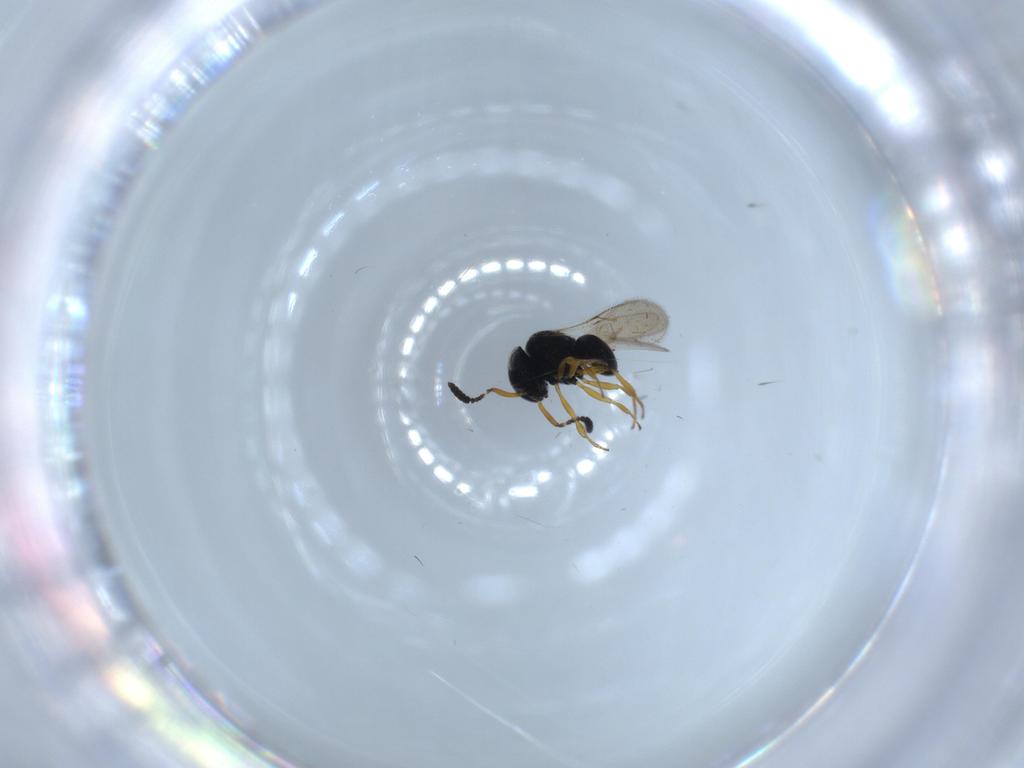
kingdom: Animalia
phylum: Arthropoda
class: Insecta
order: Hymenoptera
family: Scelionidae
